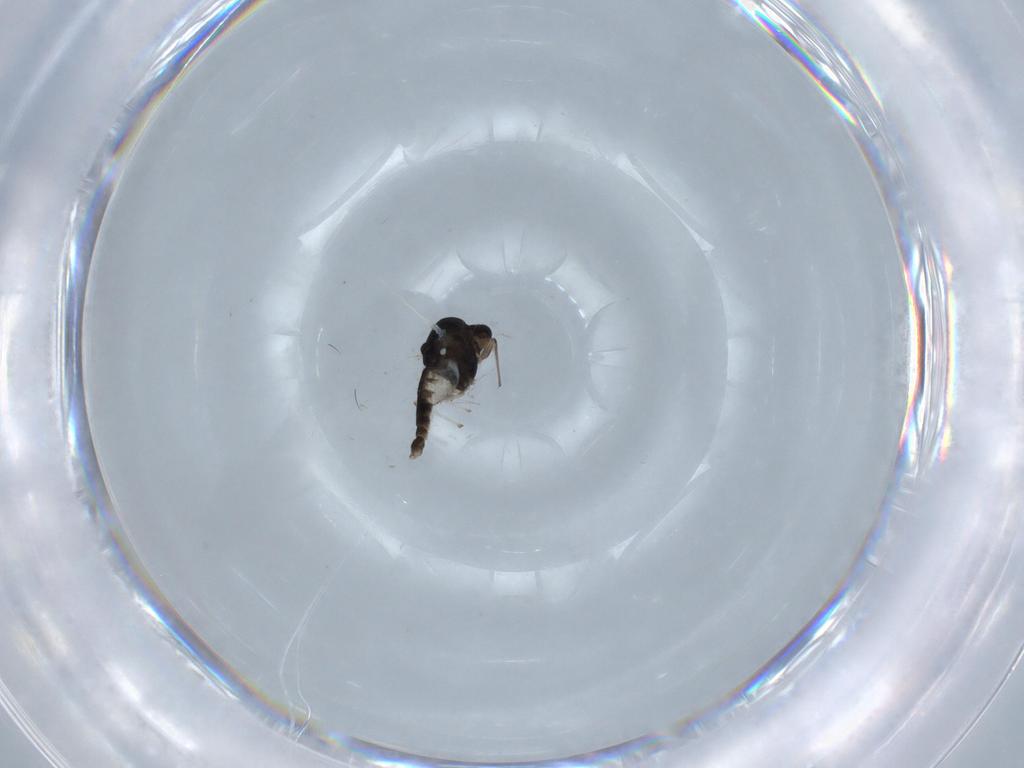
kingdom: Animalia
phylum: Arthropoda
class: Insecta
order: Diptera
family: Chironomidae
